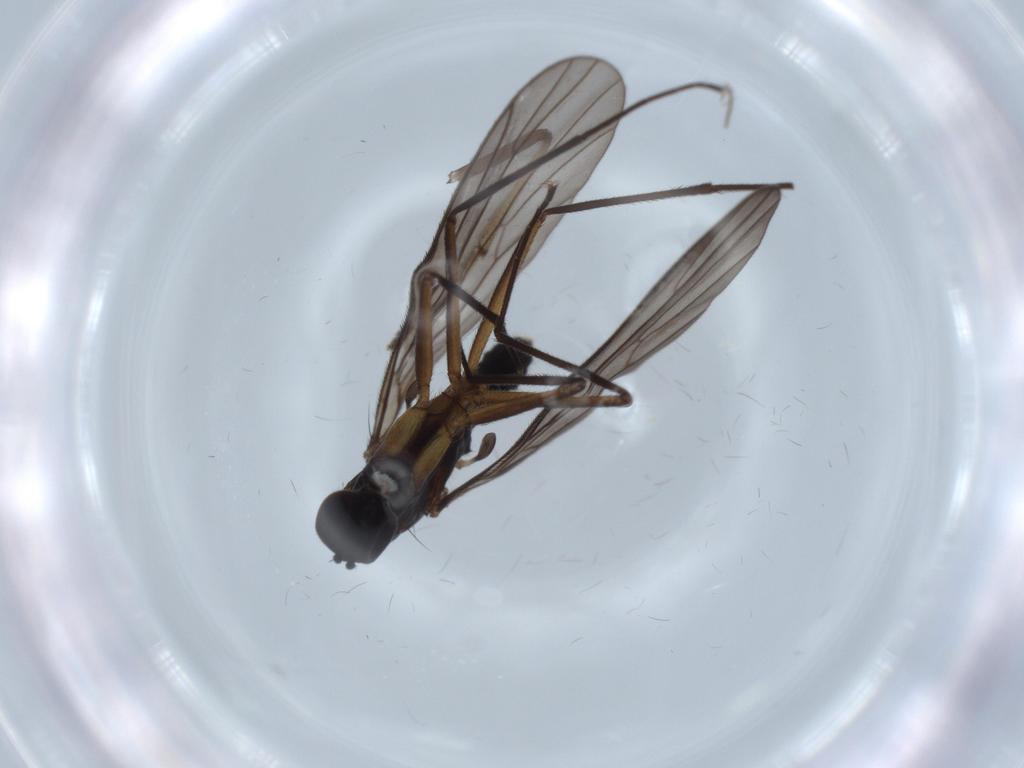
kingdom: Animalia
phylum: Arthropoda
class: Insecta
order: Diptera
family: Empididae
